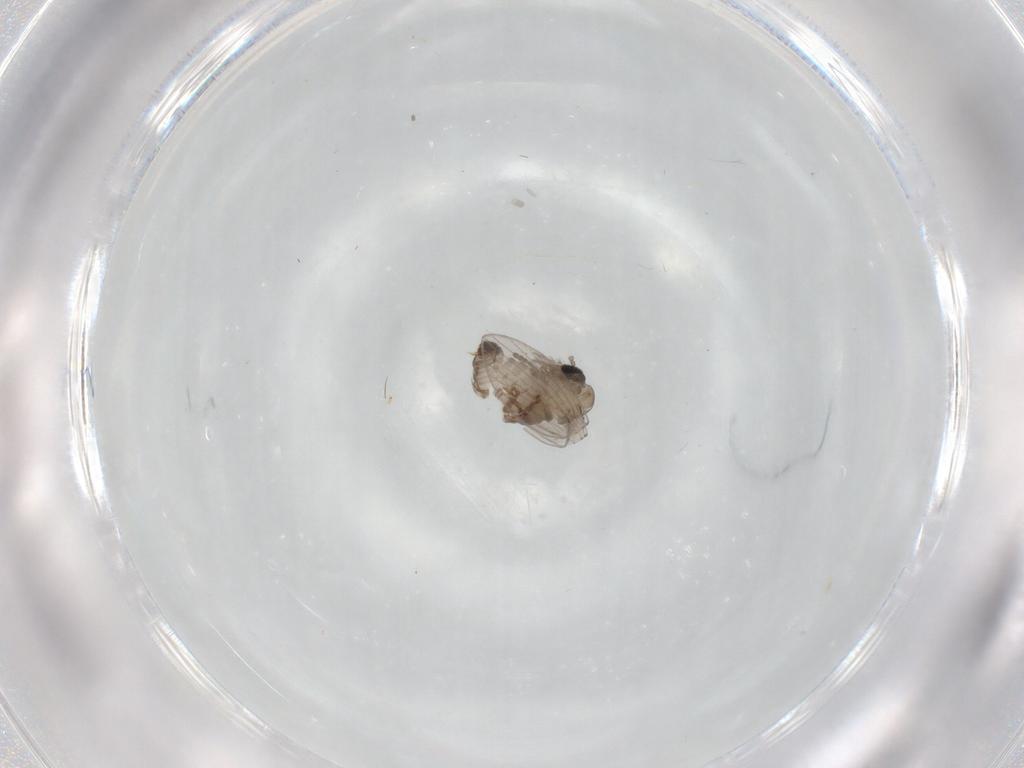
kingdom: Animalia
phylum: Arthropoda
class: Insecta
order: Diptera
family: Psychodidae
